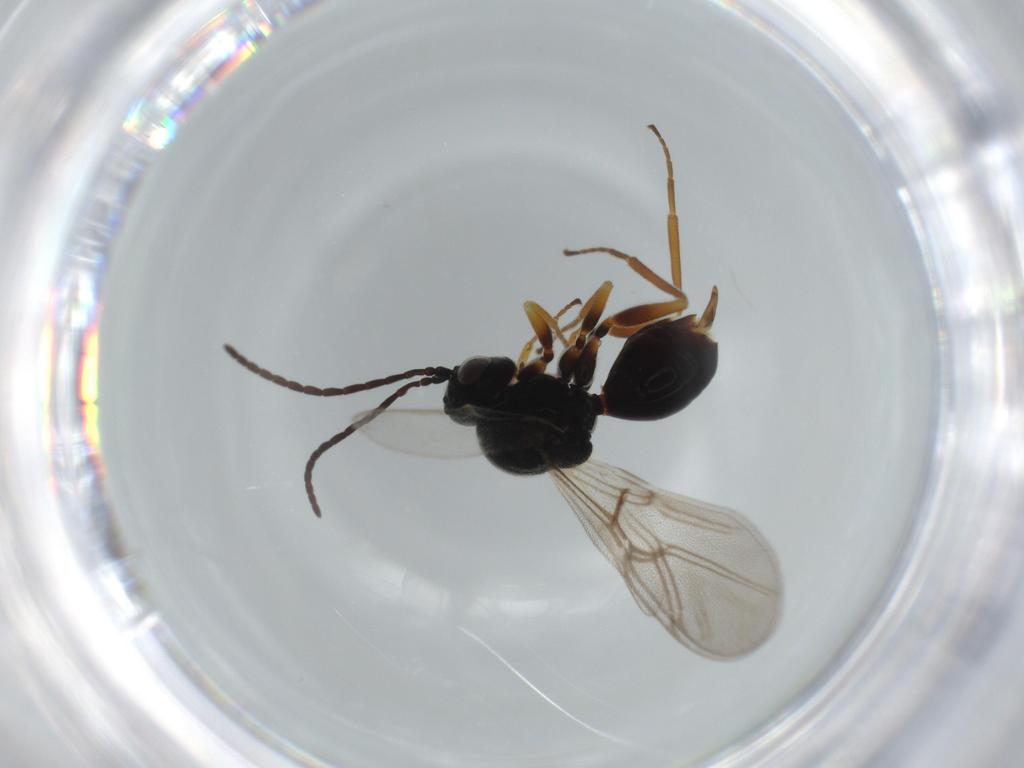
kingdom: Animalia
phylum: Arthropoda
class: Insecta
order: Hymenoptera
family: Cynipidae
